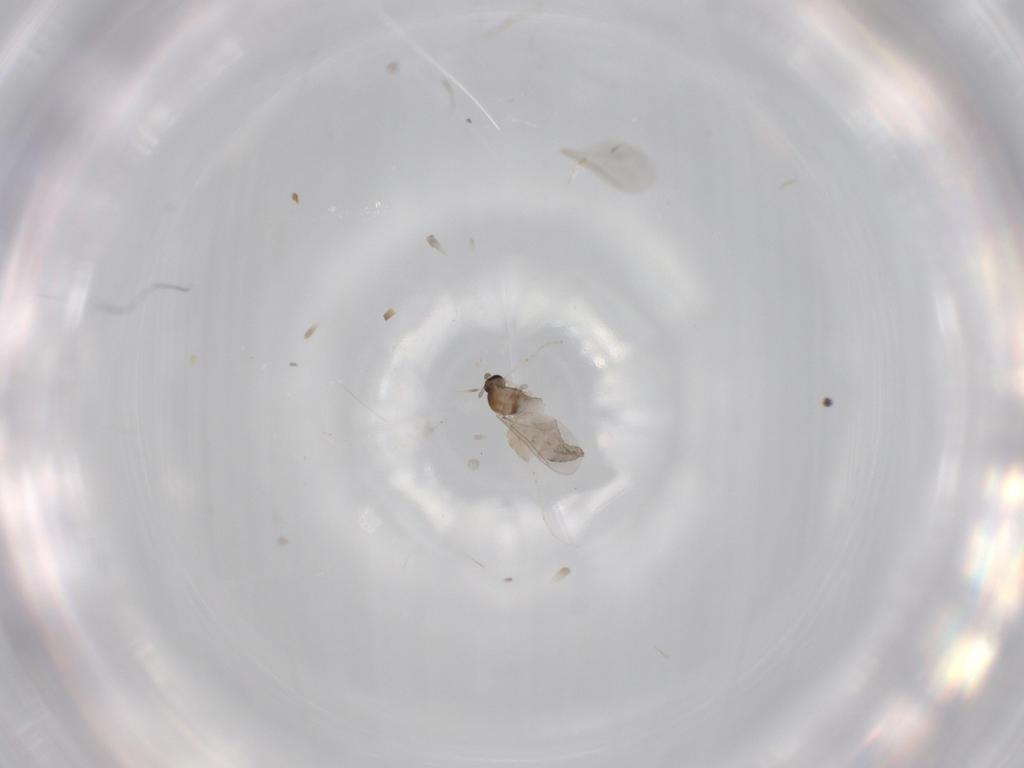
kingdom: Animalia
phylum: Arthropoda
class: Insecta
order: Diptera
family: Cecidomyiidae
